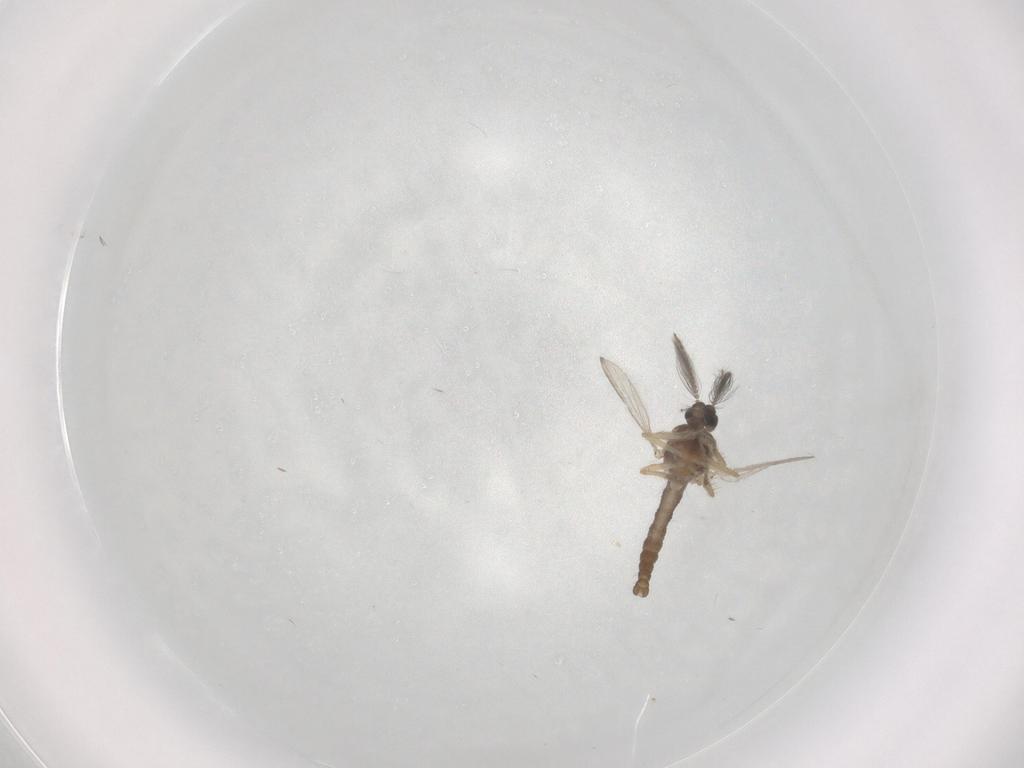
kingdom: Animalia
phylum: Arthropoda
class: Insecta
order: Diptera
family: Ceratopogonidae
